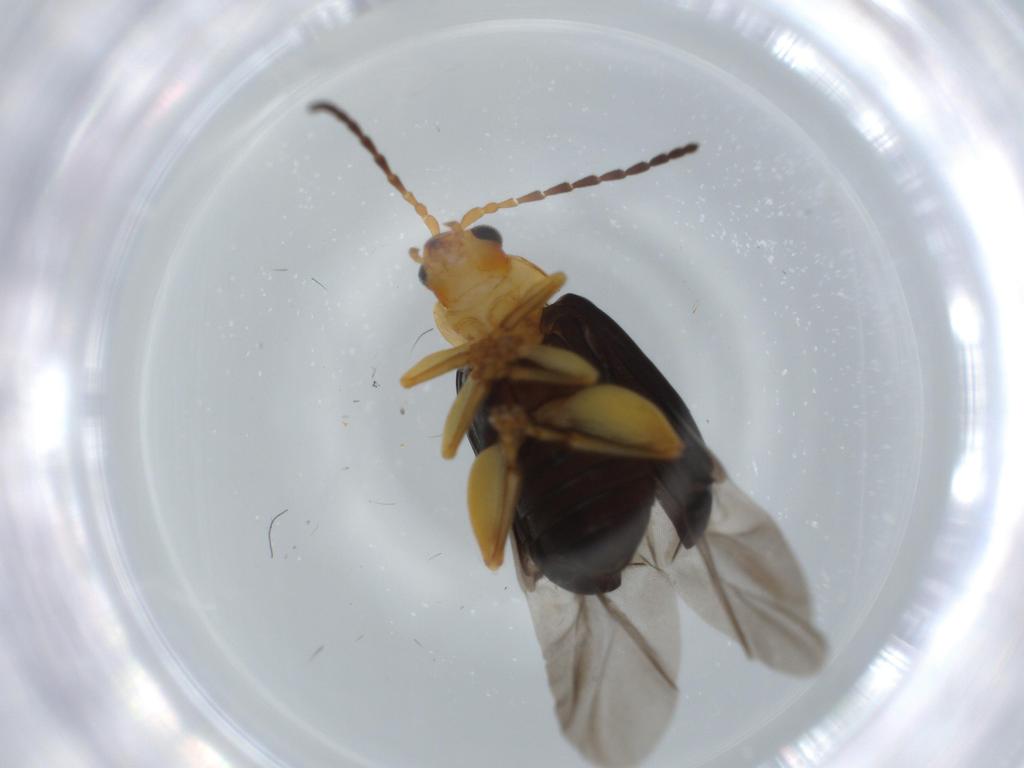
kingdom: Animalia
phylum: Arthropoda
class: Insecta
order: Coleoptera
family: Chrysomelidae
